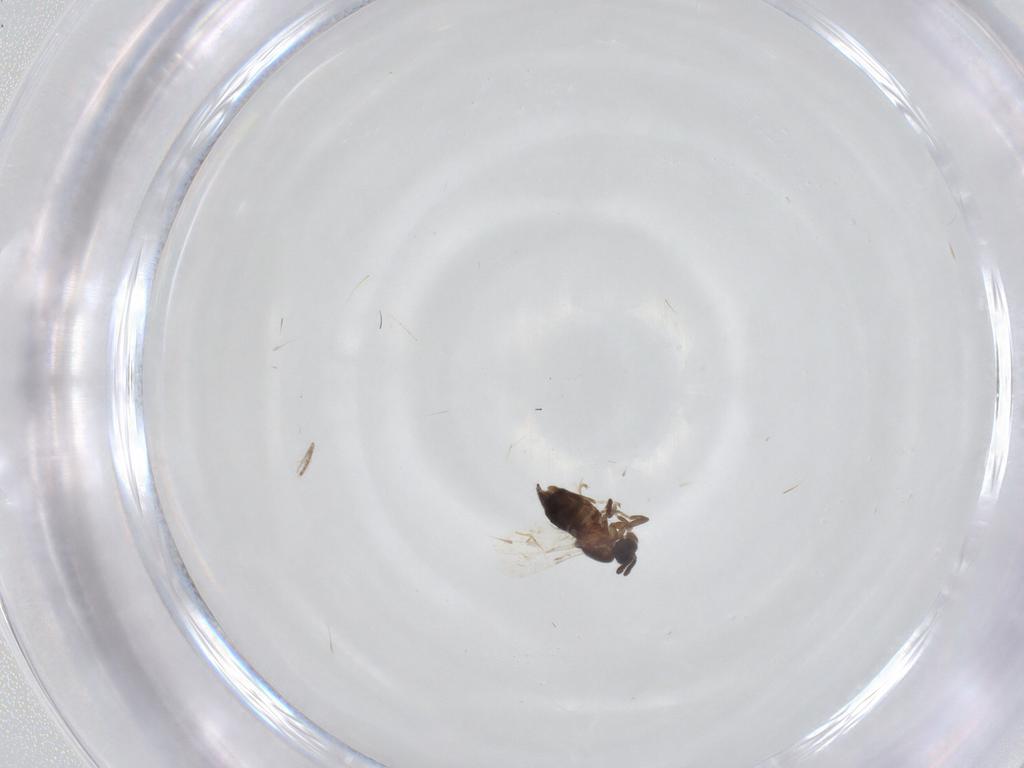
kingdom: Animalia
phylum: Arthropoda
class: Insecta
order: Diptera
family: Scatopsidae
